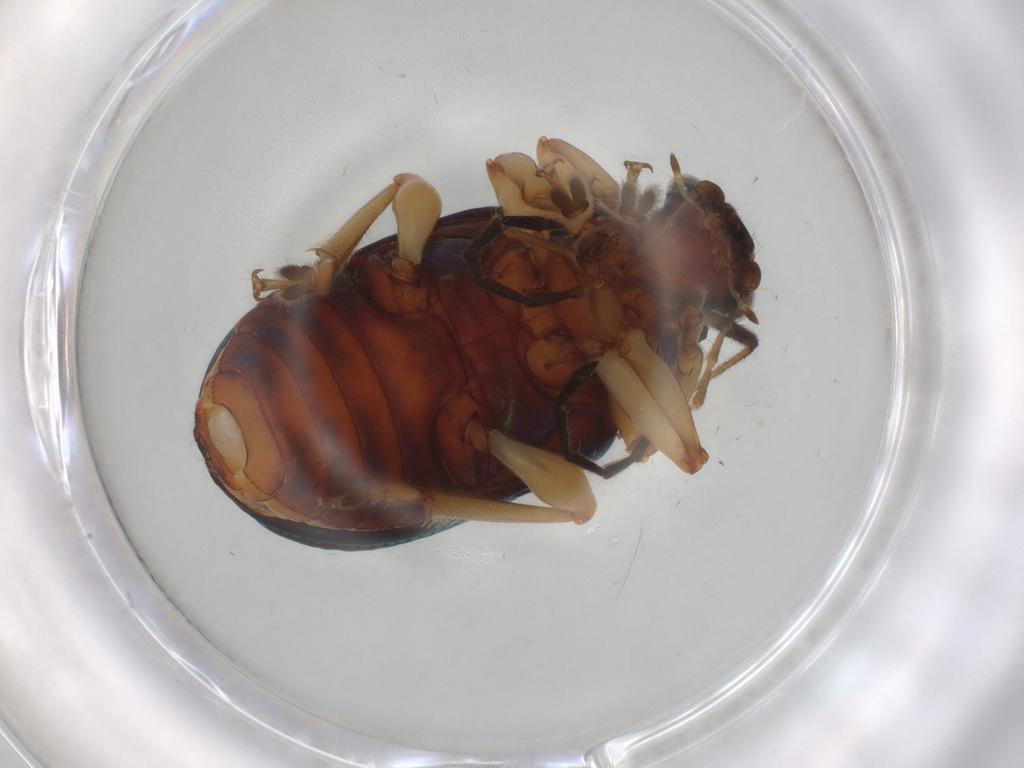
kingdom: Animalia
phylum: Arthropoda
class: Insecta
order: Coleoptera
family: Chrysomelidae
